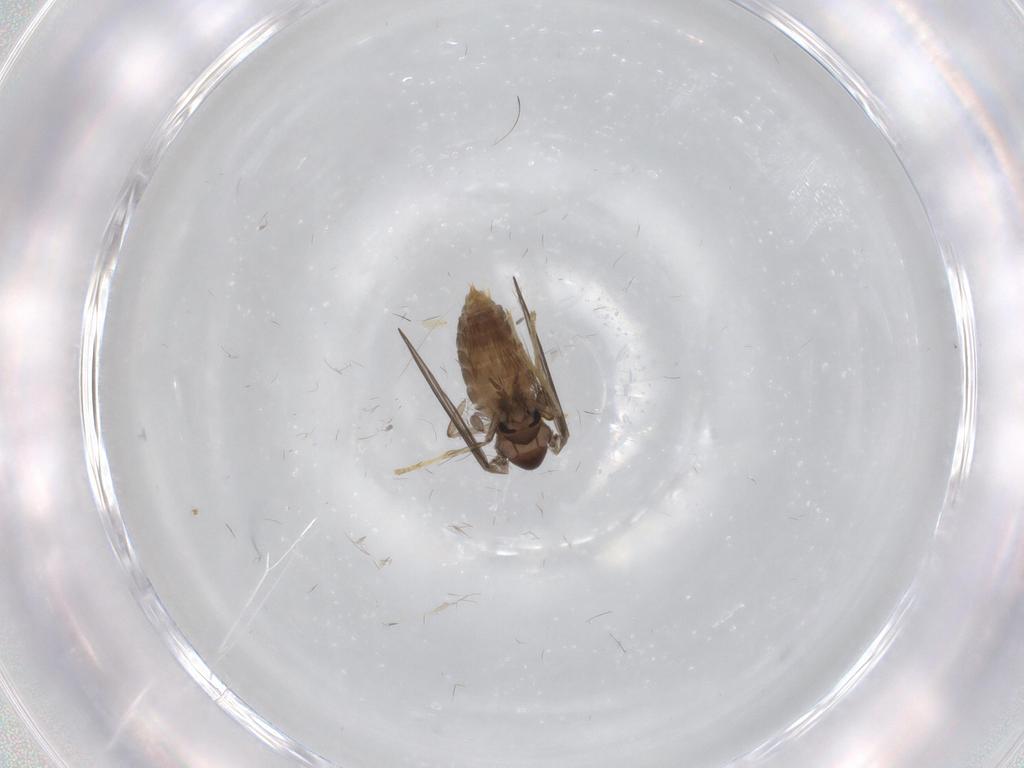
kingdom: Animalia
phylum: Arthropoda
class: Insecta
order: Diptera
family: Psychodidae
